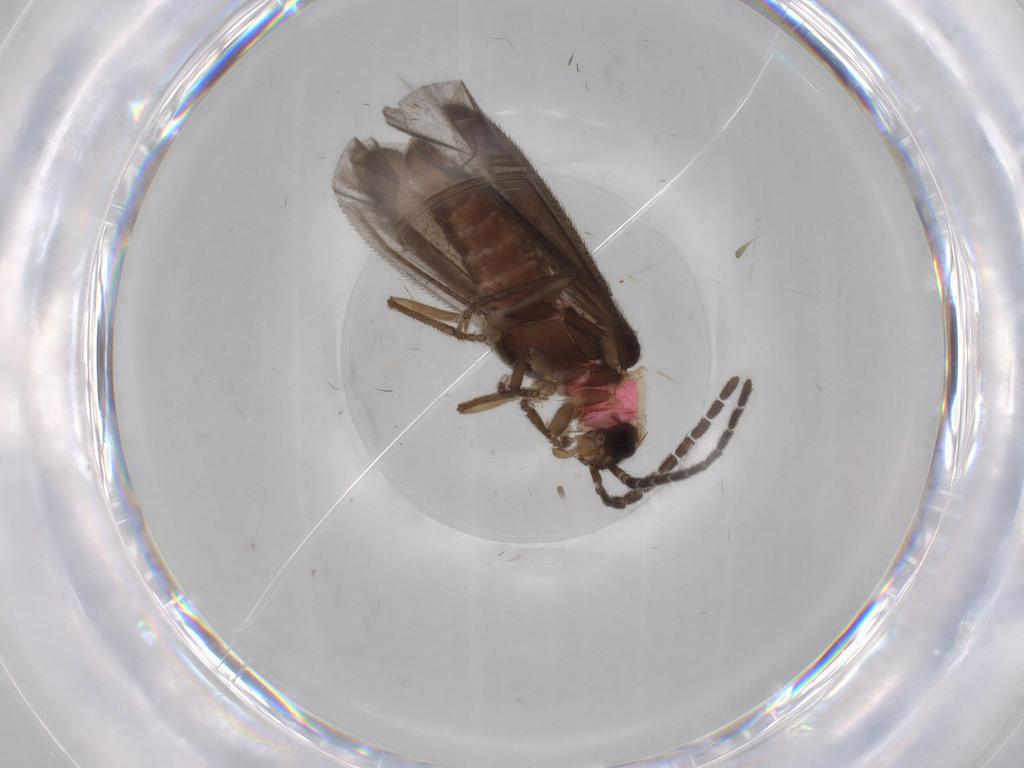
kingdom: Animalia
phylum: Arthropoda
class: Insecta
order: Coleoptera
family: Lampyridae
